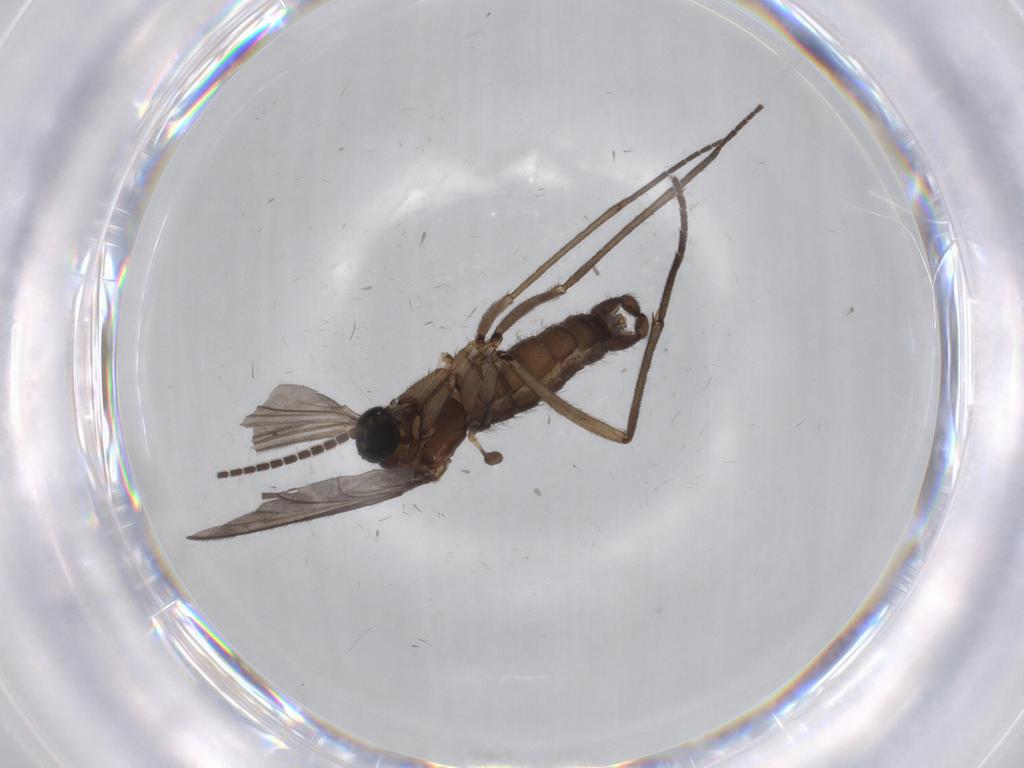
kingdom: Animalia
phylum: Arthropoda
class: Insecta
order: Diptera
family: Sciaridae
